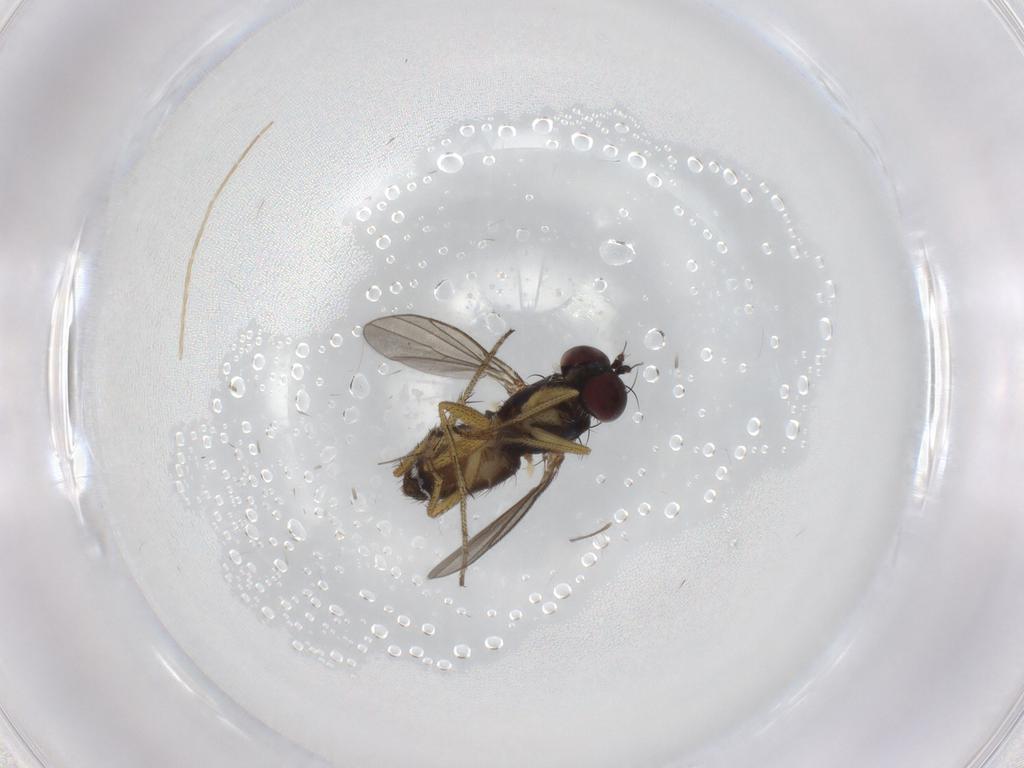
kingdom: Animalia
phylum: Arthropoda
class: Insecta
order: Diptera
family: Sciaridae
